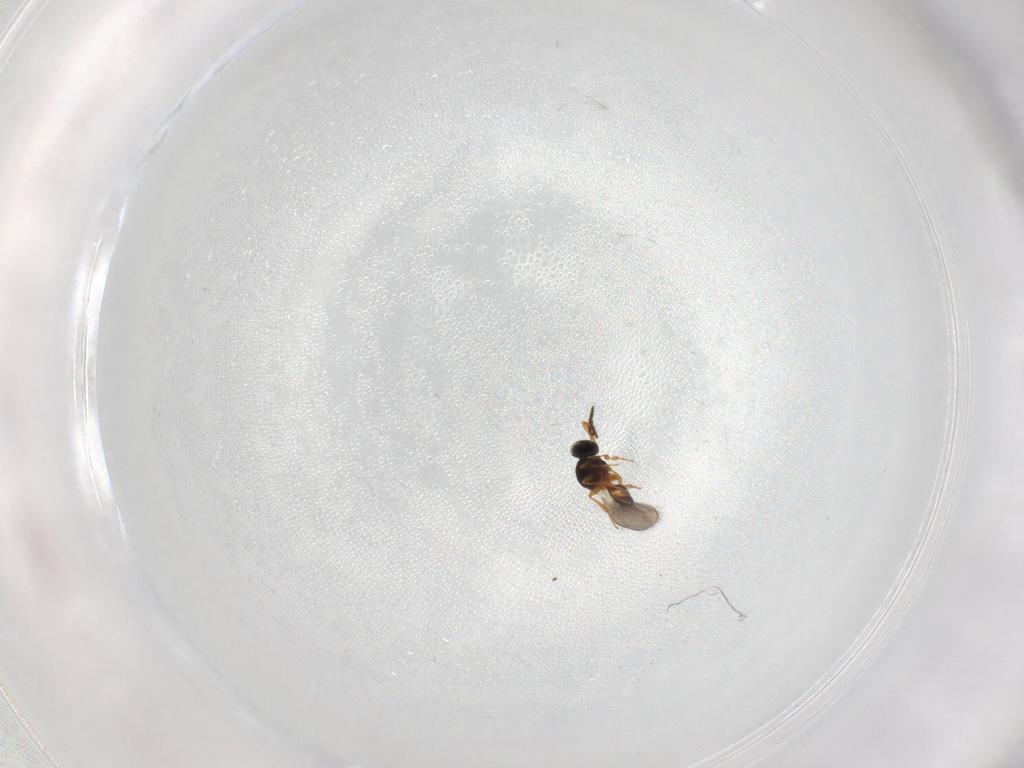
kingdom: Animalia
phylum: Arthropoda
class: Insecta
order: Hymenoptera
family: Platygastridae
